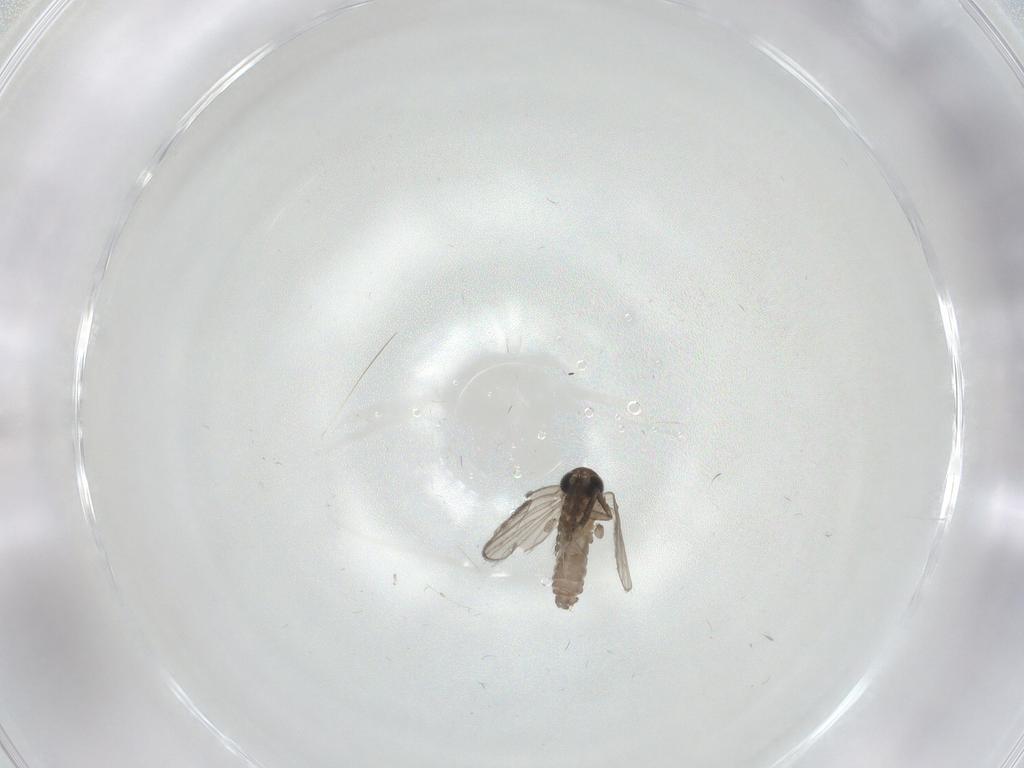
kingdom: Animalia
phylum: Arthropoda
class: Insecta
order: Diptera
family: Psychodidae
